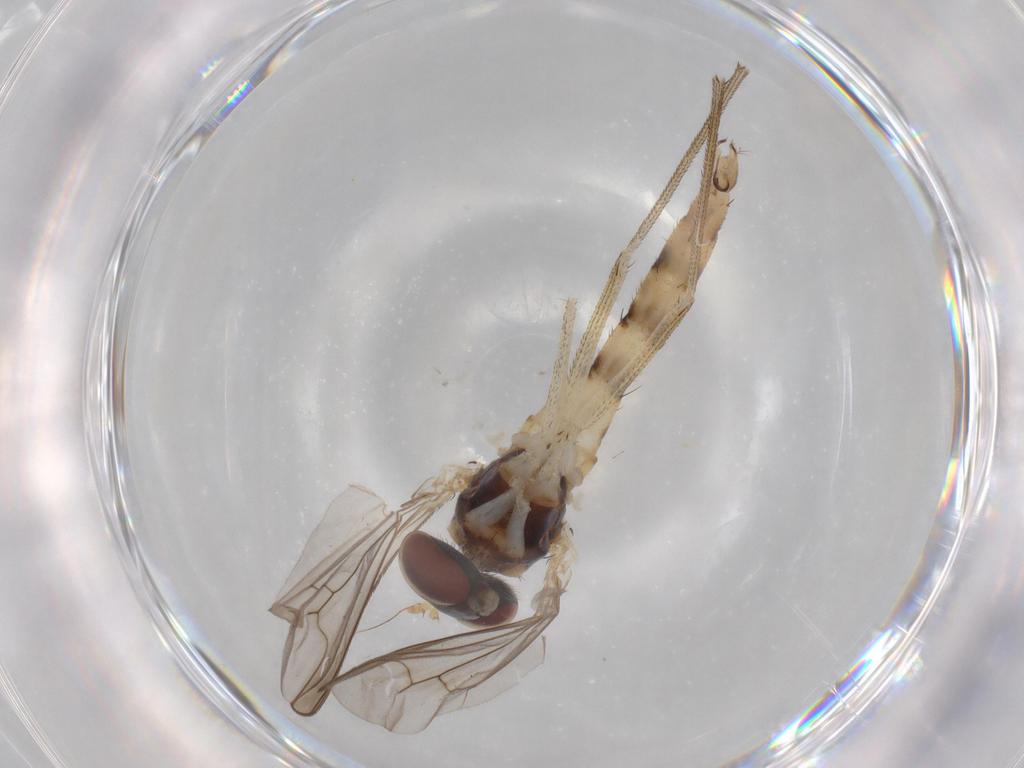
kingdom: Animalia
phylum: Arthropoda
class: Insecta
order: Diptera
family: Dolichopodidae
